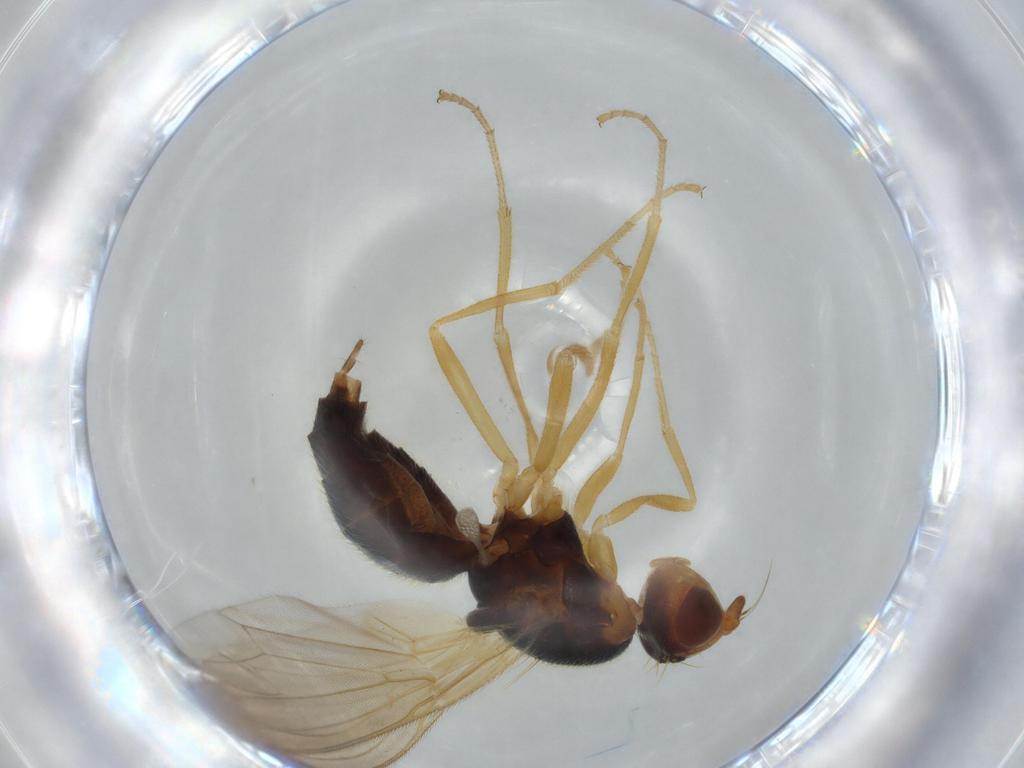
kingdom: Animalia
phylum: Arthropoda
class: Insecta
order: Diptera
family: Psilidae
